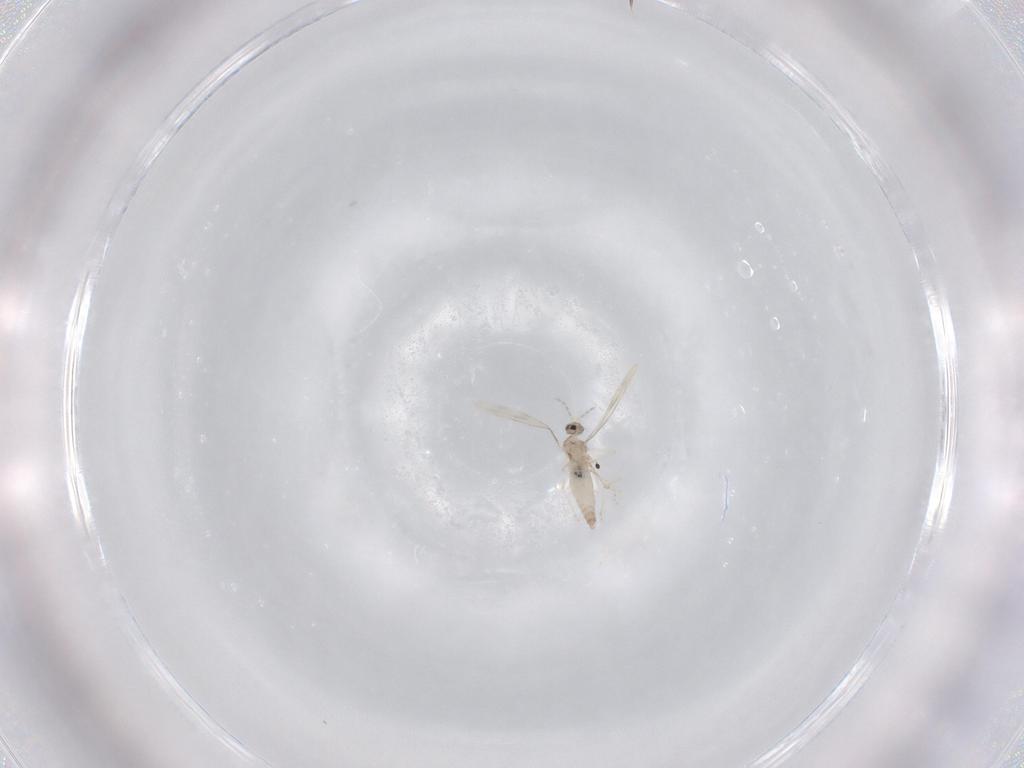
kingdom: Animalia
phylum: Arthropoda
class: Insecta
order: Diptera
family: Cecidomyiidae
